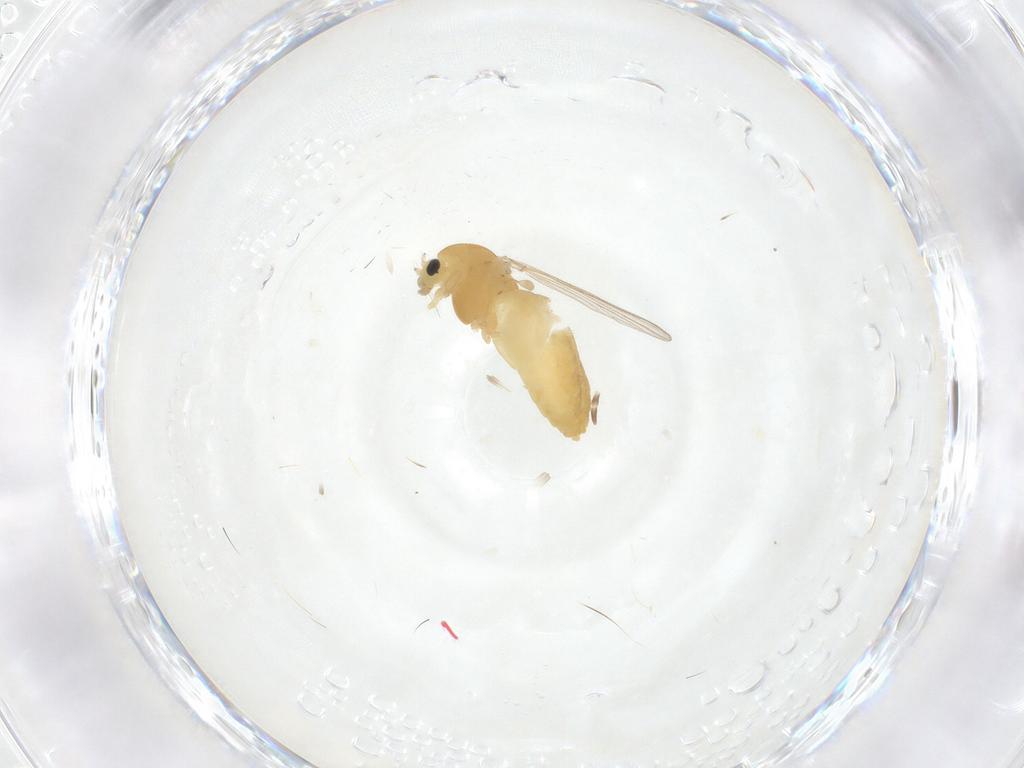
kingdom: Animalia
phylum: Arthropoda
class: Insecta
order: Diptera
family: Chironomidae
